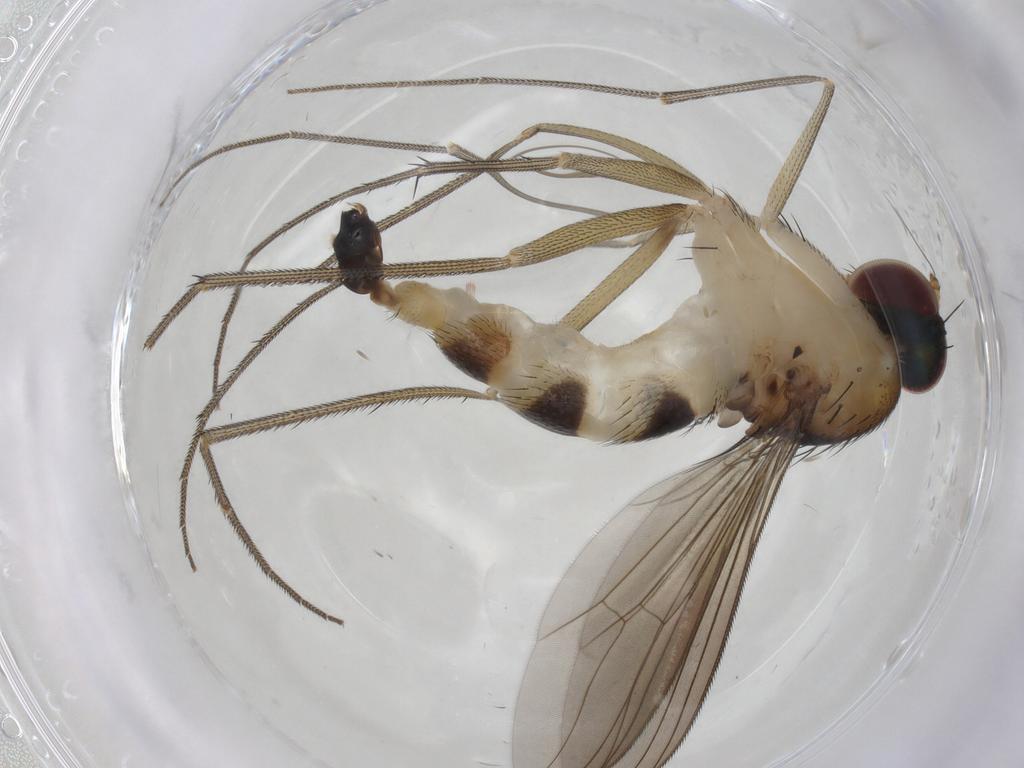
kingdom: Animalia
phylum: Arthropoda
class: Insecta
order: Diptera
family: Dolichopodidae
